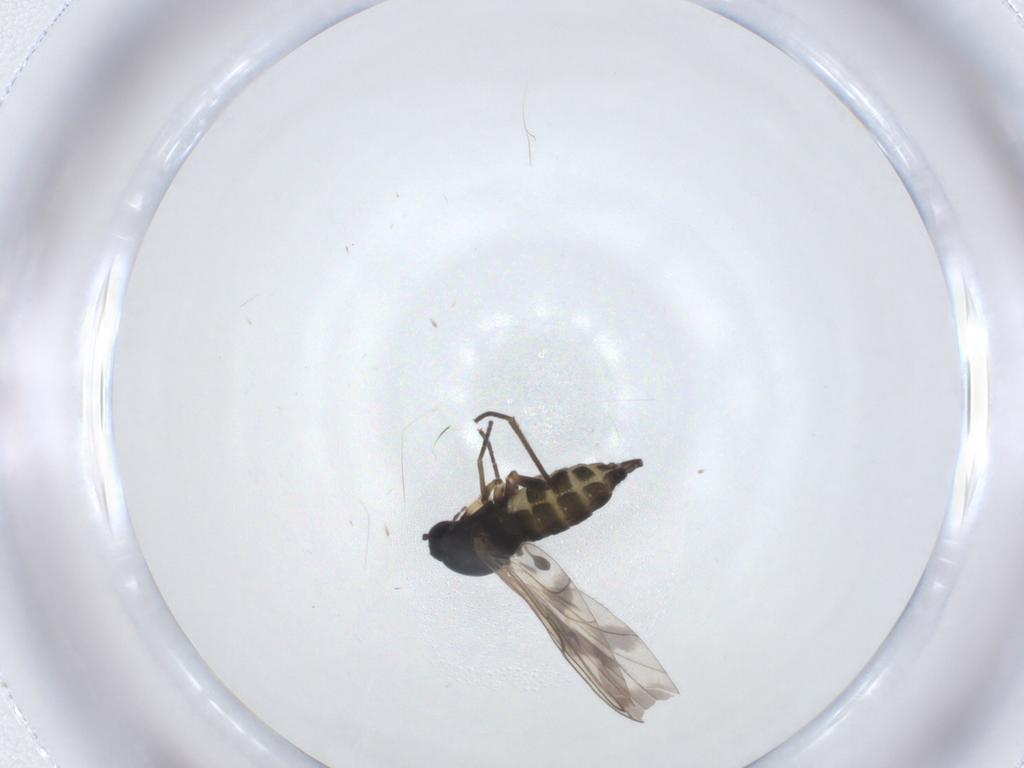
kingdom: Animalia
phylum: Arthropoda
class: Insecta
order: Diptera
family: Sciaridae
